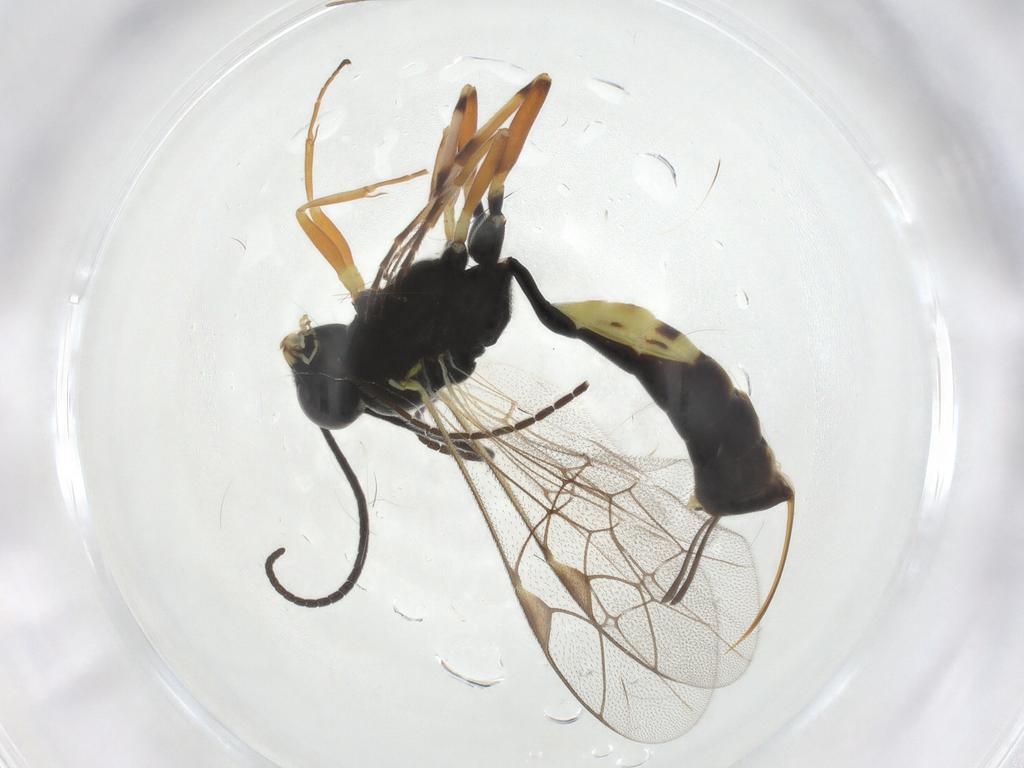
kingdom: Animalia
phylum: Arthropoda
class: Insecta
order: Hymenoptera
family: Ichneumonidae
